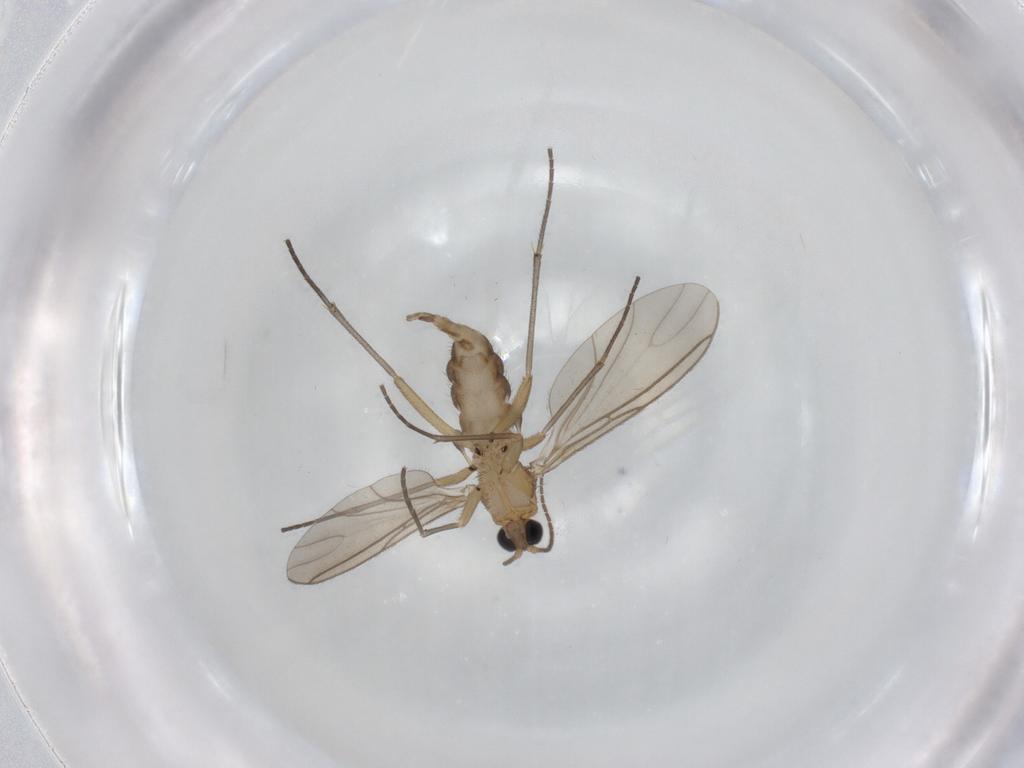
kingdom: Animalia
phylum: Arthropoda
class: Insecta
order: Diptera
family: Sciaridae
